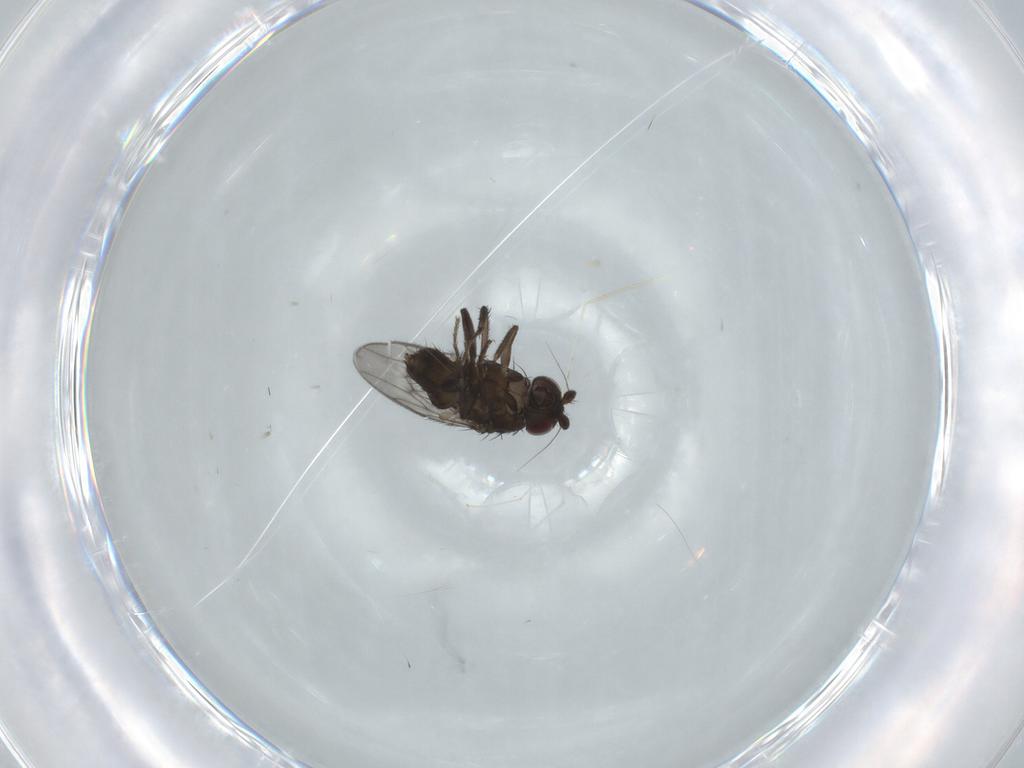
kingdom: Animalia
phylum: Arthropoda
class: Insecta
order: Diptera
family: Sphaeroceridae
